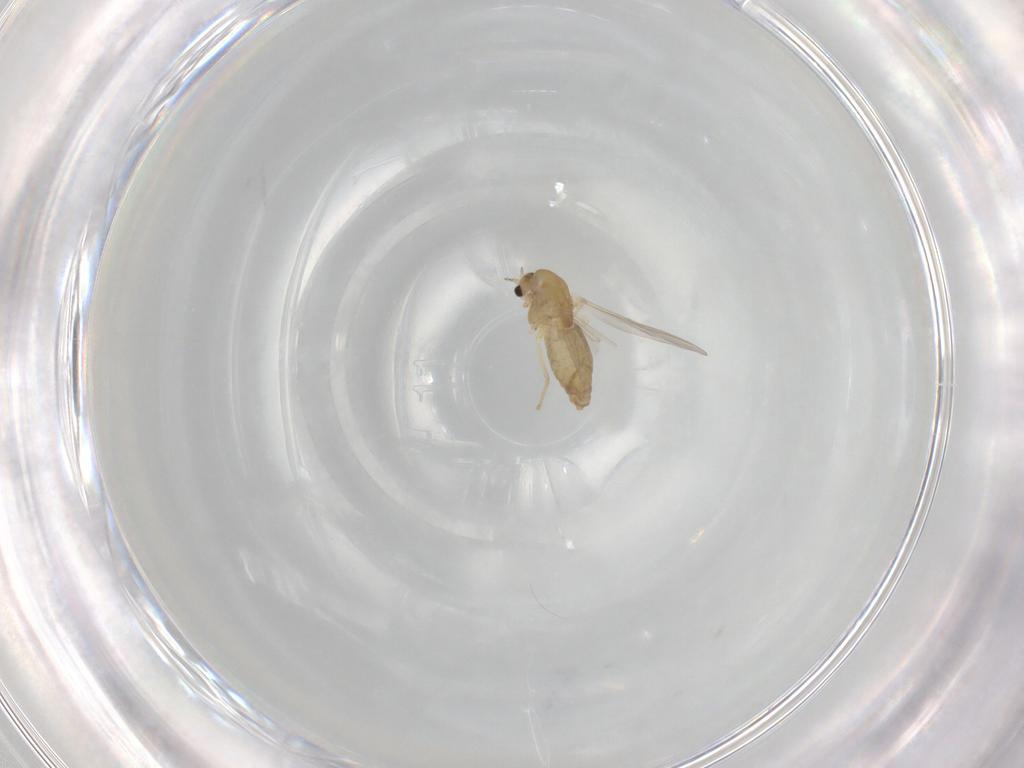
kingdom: Animalia
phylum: Arthropoda
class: Insecta
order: Diptera
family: Chironomidae
